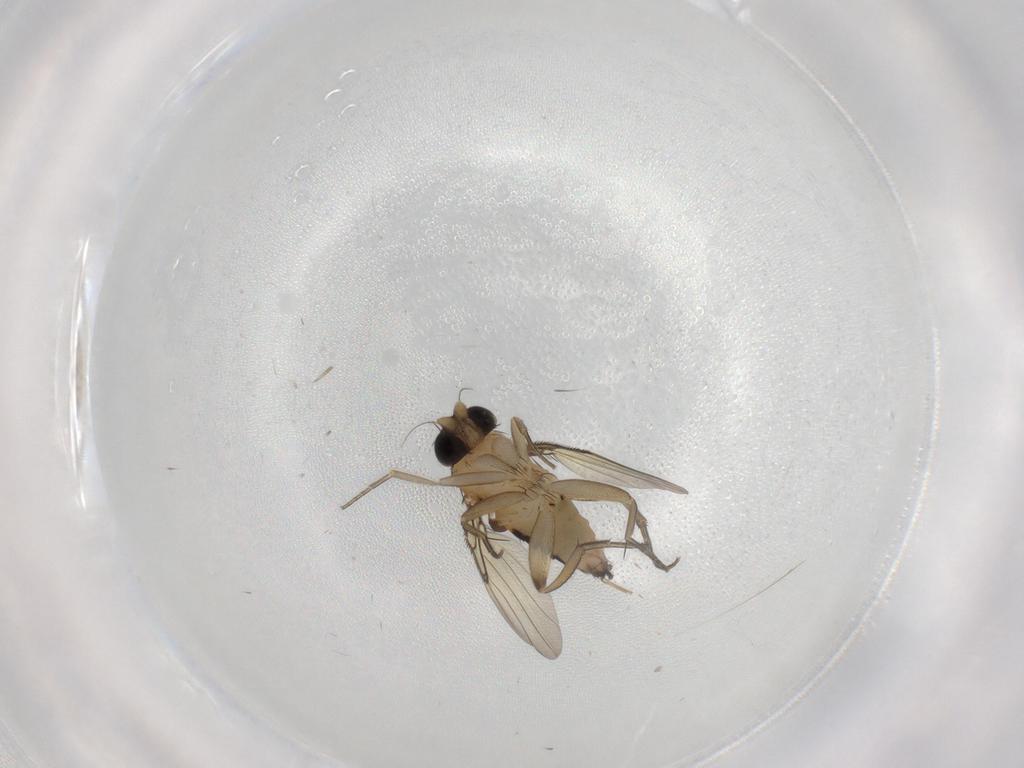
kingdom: Animalia
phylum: Arthropoda
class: Insecta
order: Diptera
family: Phoridae
